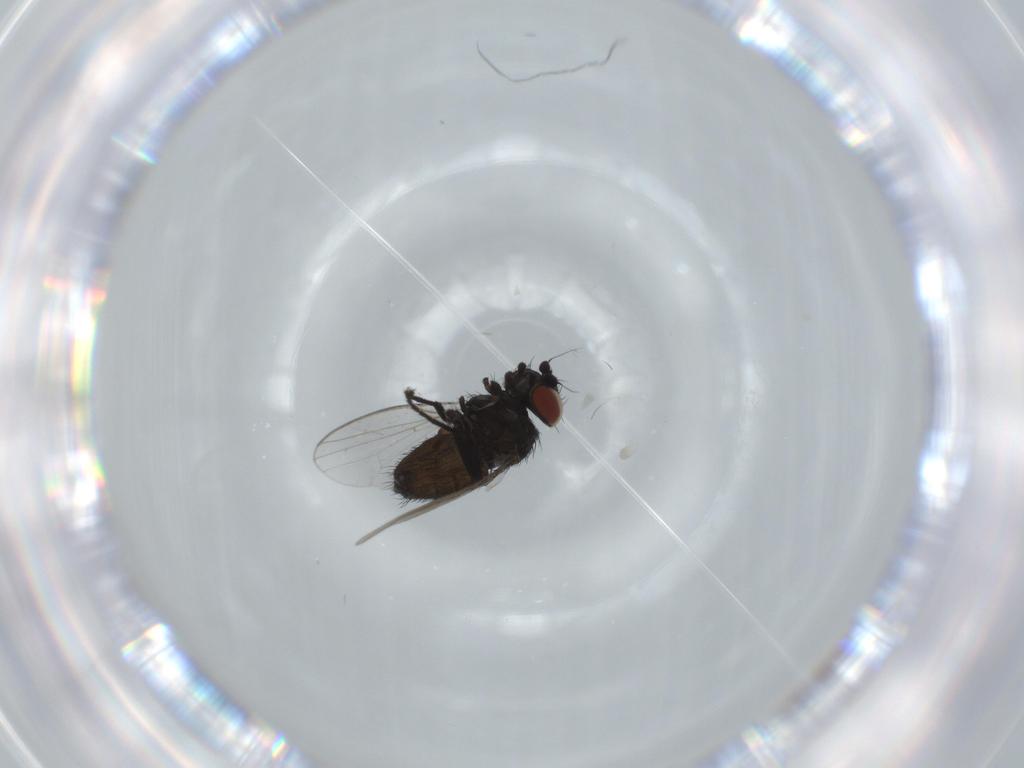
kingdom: Animalia
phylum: Arthropoda
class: Insecta
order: Diptera
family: Milichiidae
